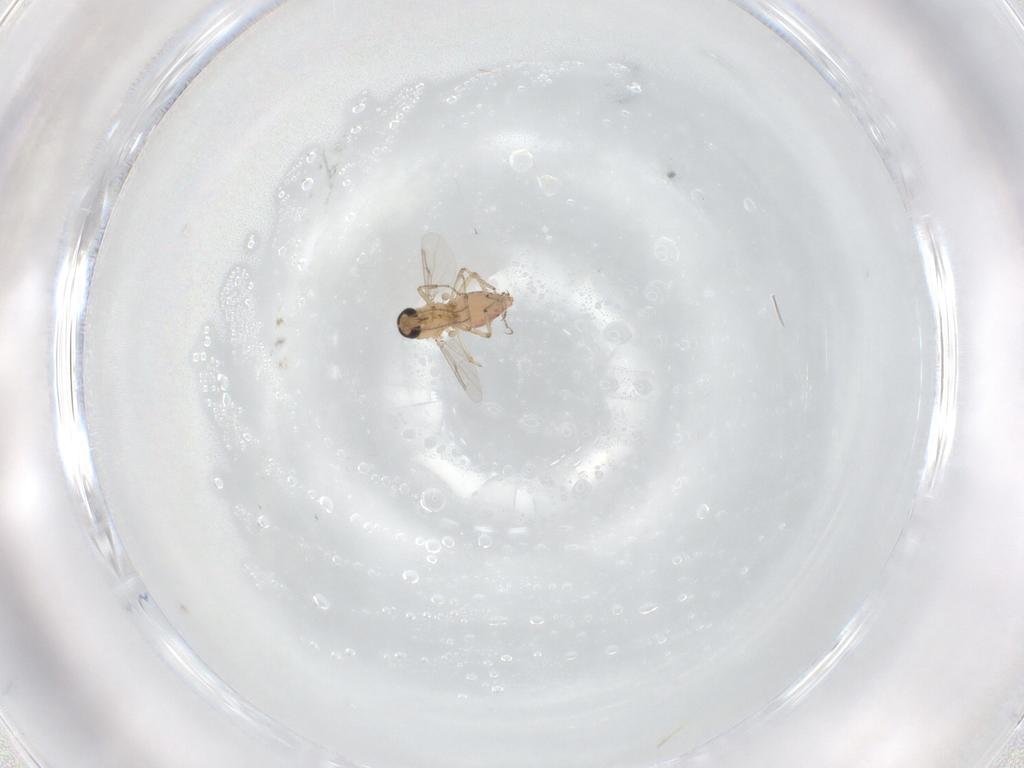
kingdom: Animalia
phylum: Arthropoda
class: Insecta
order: Diptera
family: Ceratopogonidae
